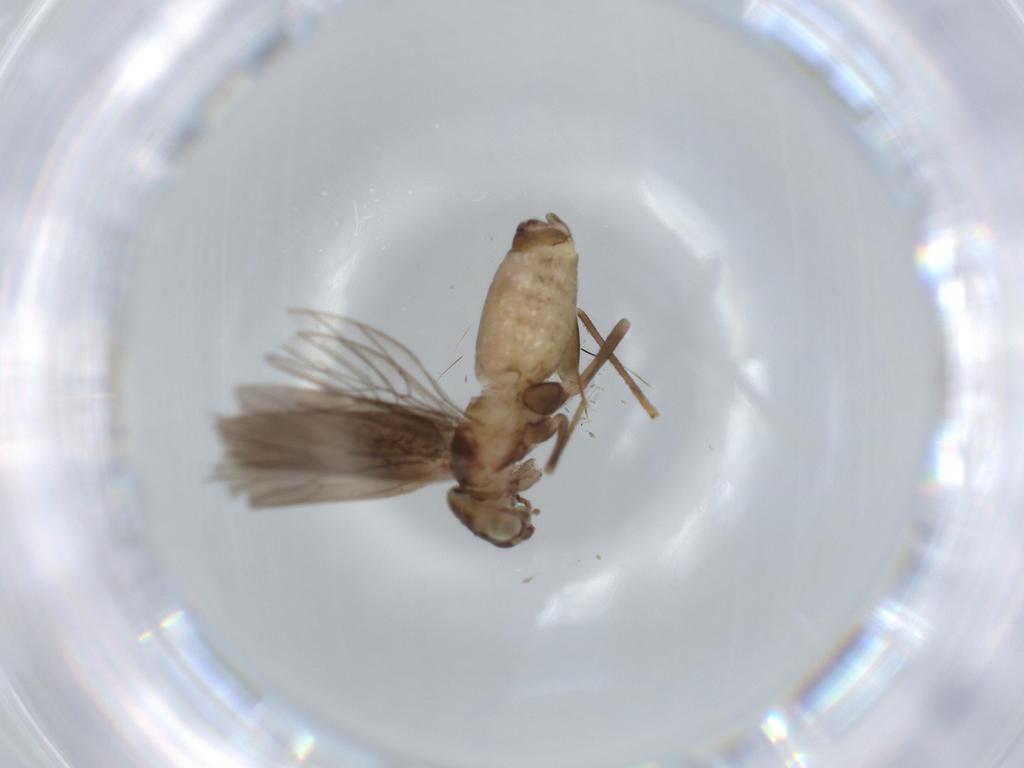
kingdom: Animalia
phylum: Arthropoda
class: Insecta
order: Psocodea
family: Lepidopsocidae
